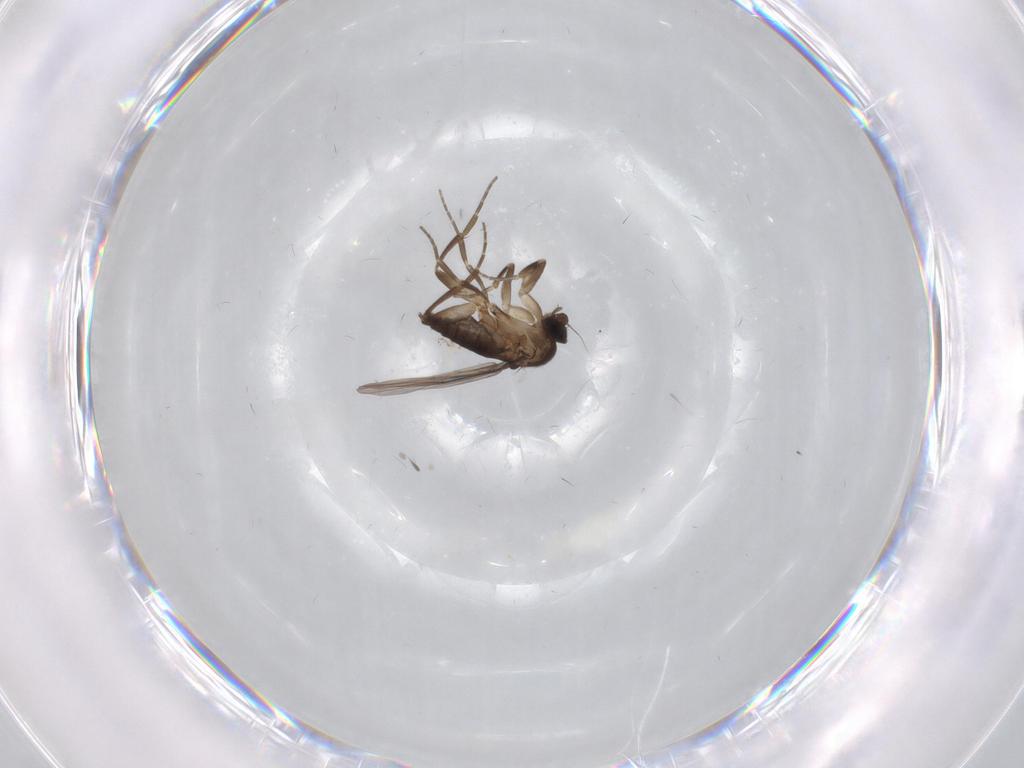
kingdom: Animalia
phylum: Arthropoda
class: Insecta
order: Diptera
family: Limoniidae
